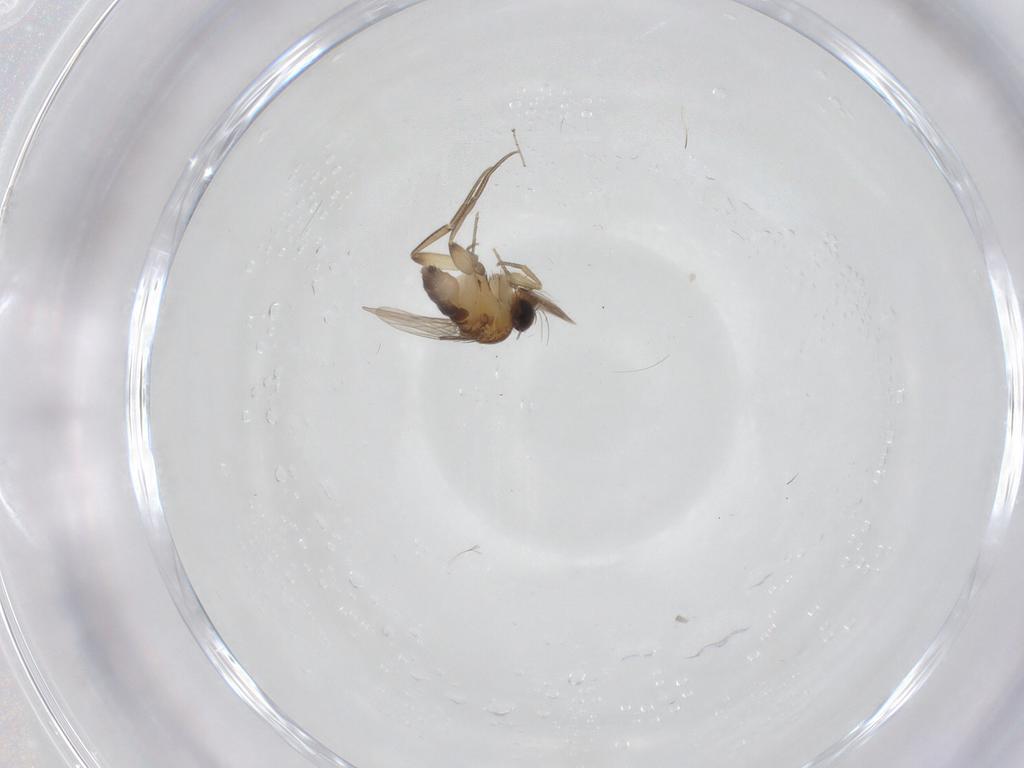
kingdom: Animalia
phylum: Arthropoda
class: Insecta
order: Diptera
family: Phoridae
